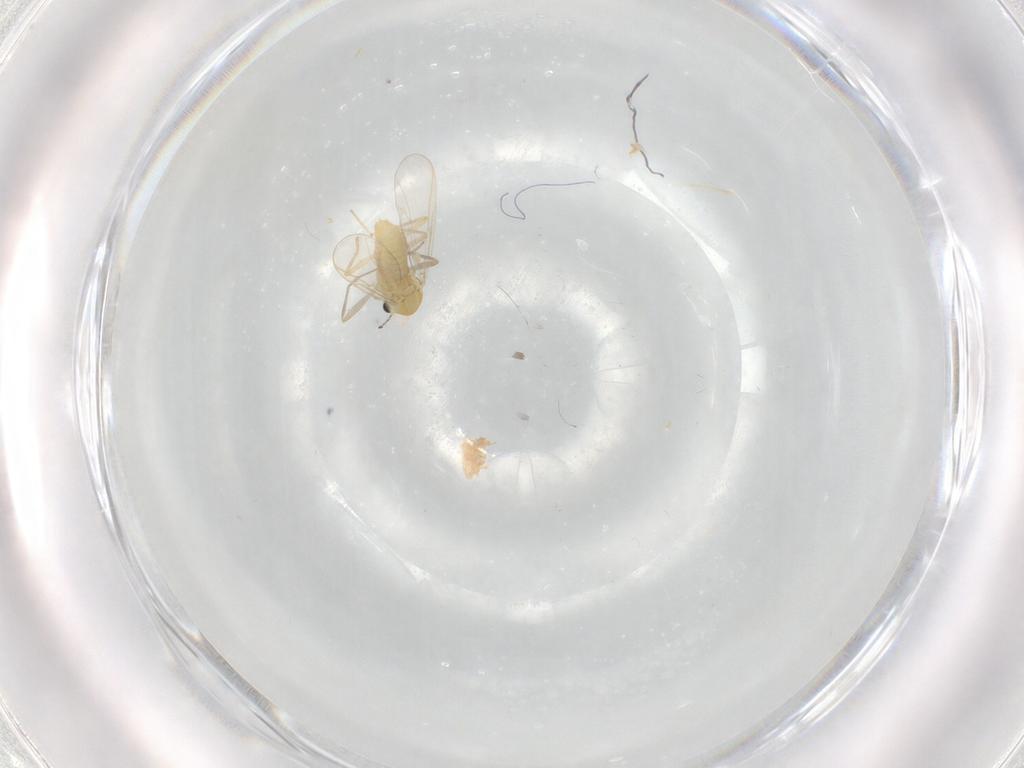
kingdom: Animalia
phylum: Arthropoda
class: Insecta
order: Diptera
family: Chironomidae
